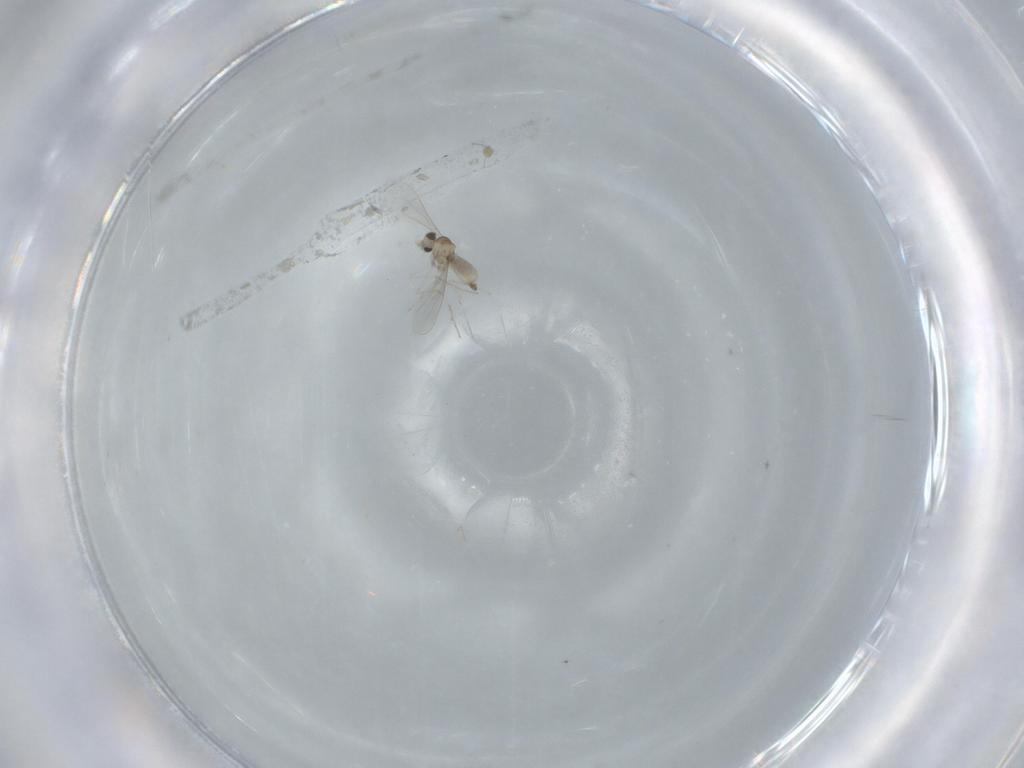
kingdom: Animalia
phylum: Arthropoda
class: Insecta
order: Diptera
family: Cecidomyiidae
